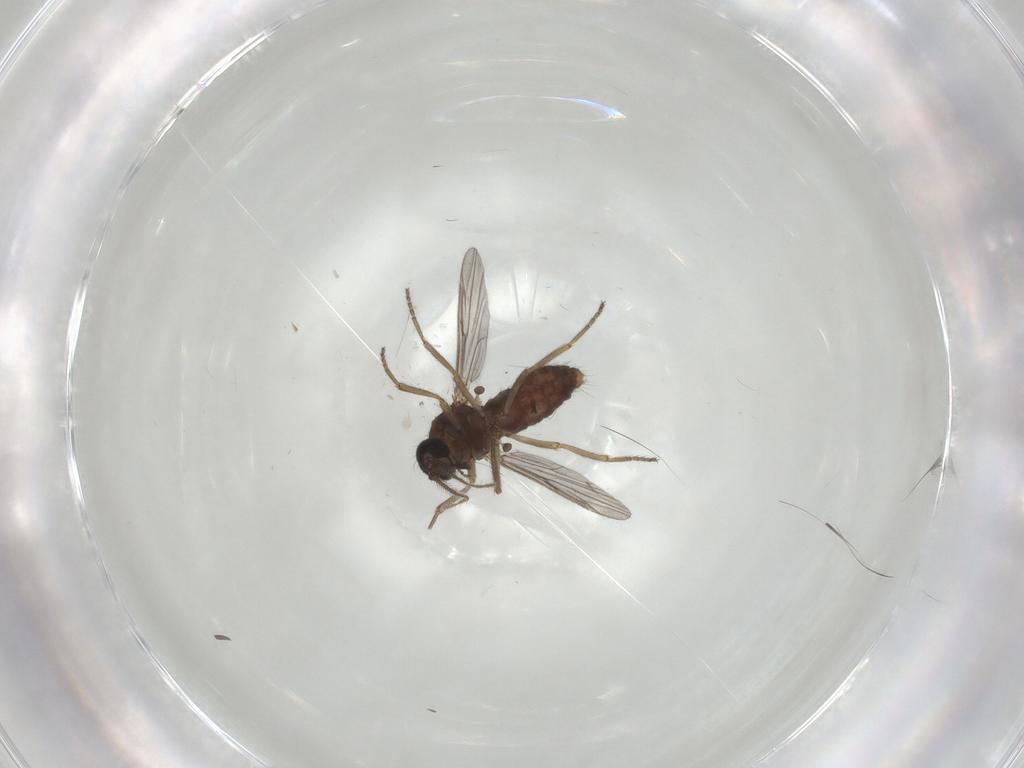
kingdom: Animalia
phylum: Arthropoda
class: Insecta
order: Diptera
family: Ceratopogonidae
